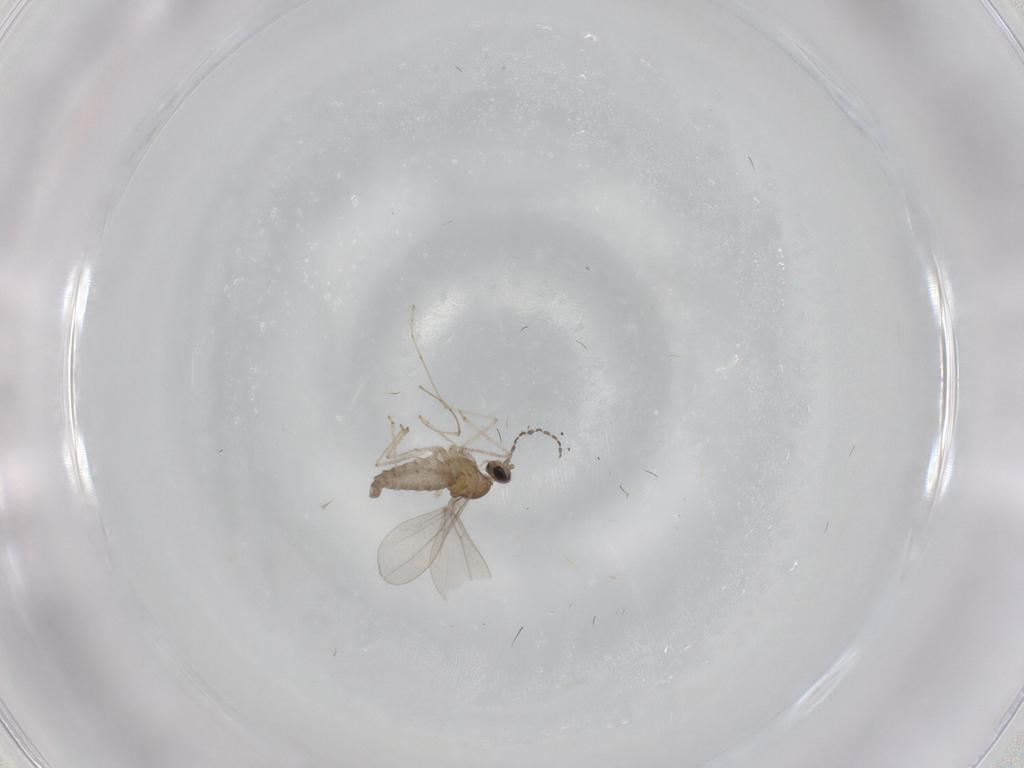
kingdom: Animalia
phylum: Arthropoda
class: Insecta
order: Diptera
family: Cecidomyiidae
